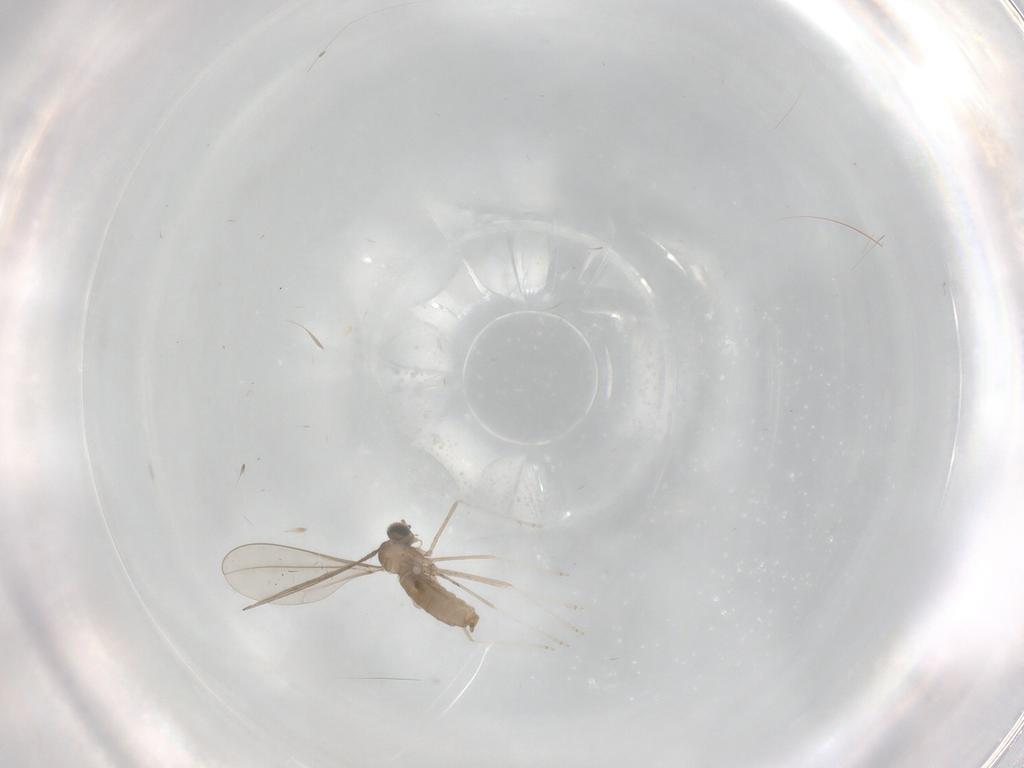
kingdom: Animalia
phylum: Arthropoda
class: Insecta
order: Diptera
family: Cecidomyiidae
